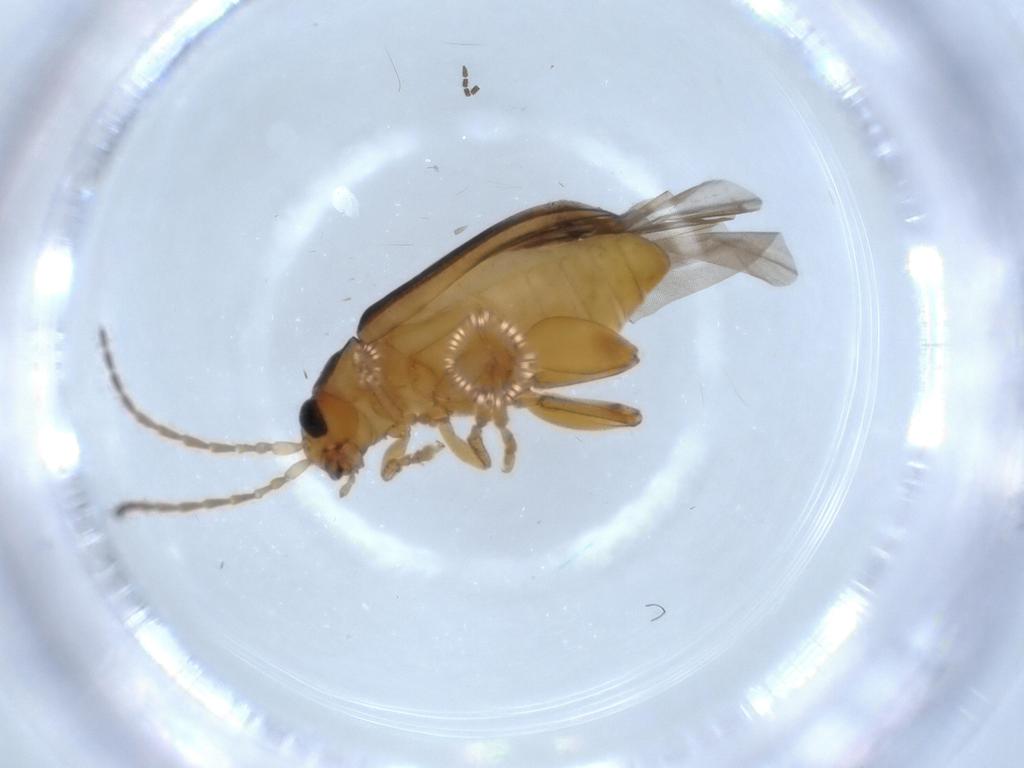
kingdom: Animalia
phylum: Arthropoda
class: Insecta
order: Coleoptera
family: Chrysomelidae
